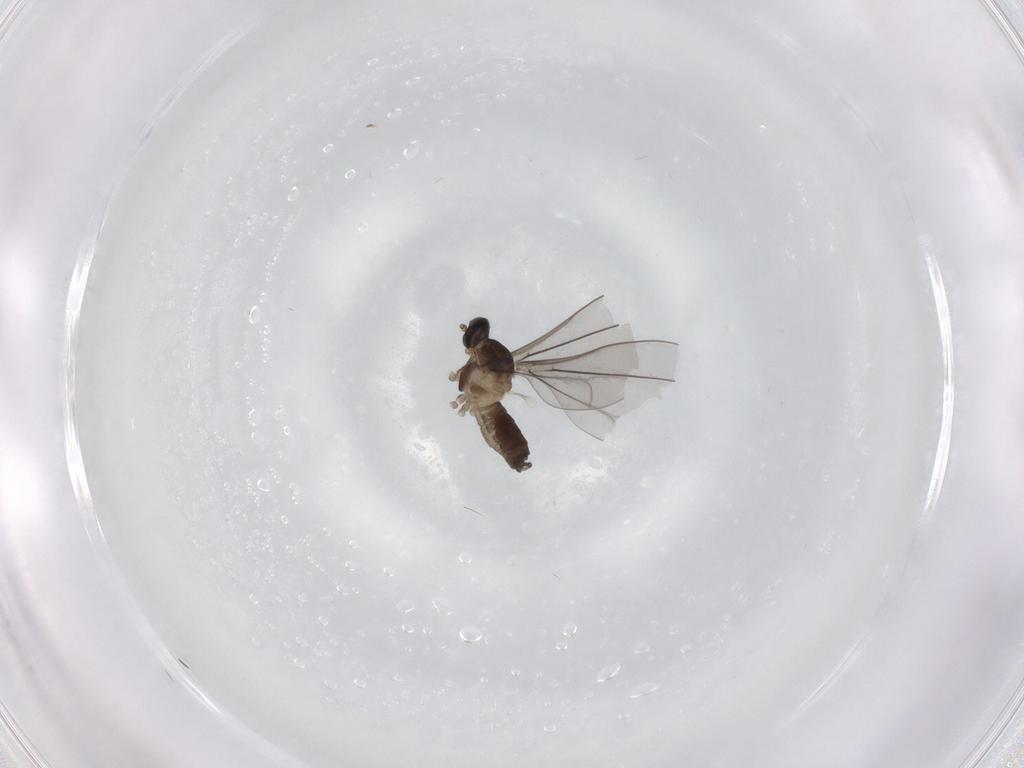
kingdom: Animalia
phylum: Arthropoda
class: Insecta
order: Diptera
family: Cecidomyiidae
